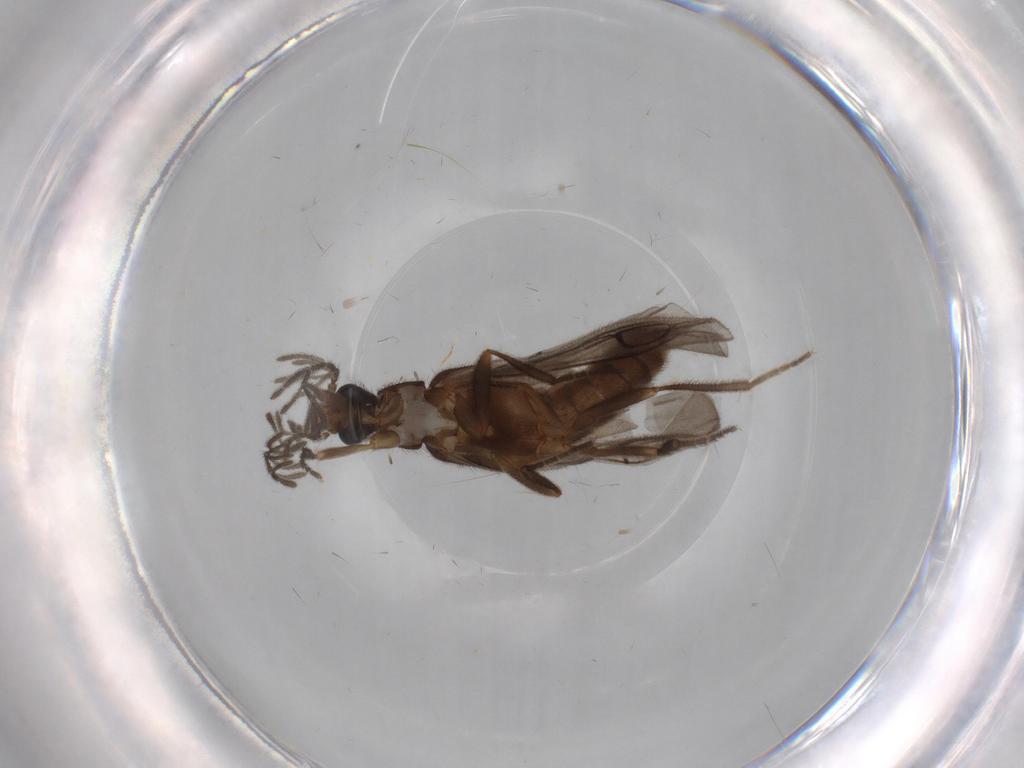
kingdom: Animalia
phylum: Arthropoda
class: Insecta
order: Coleoptera
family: Scarabaeidae
